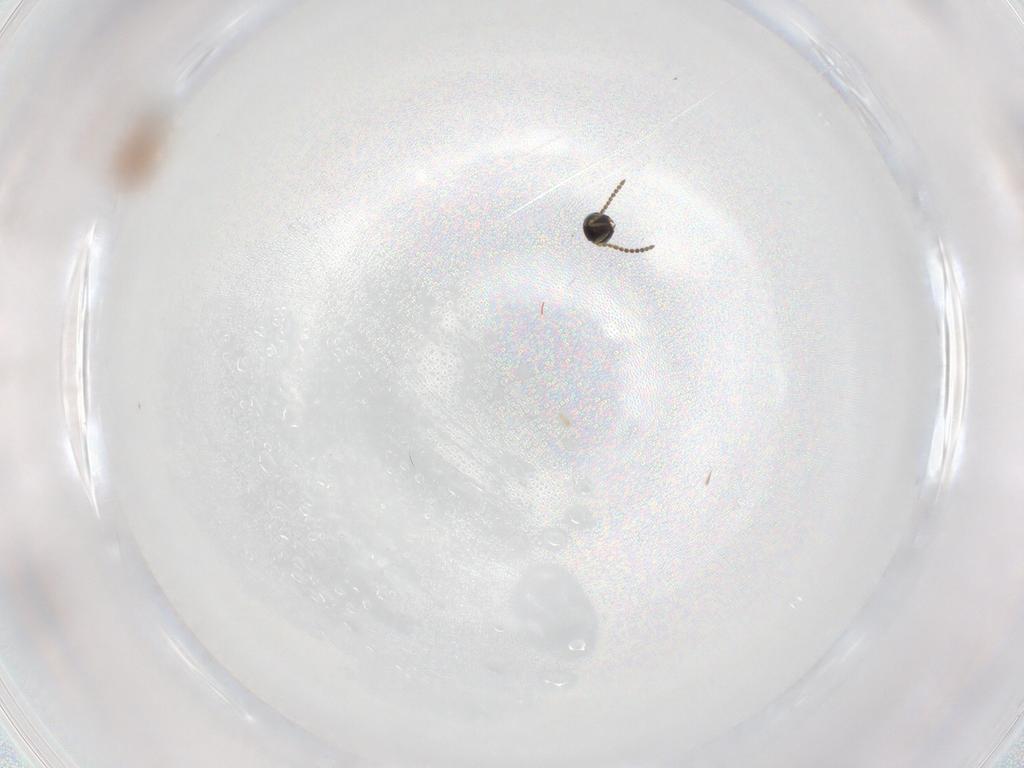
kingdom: Animalia
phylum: Arthropoda
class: Insecta
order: Hymenoptera
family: Scelionidae
